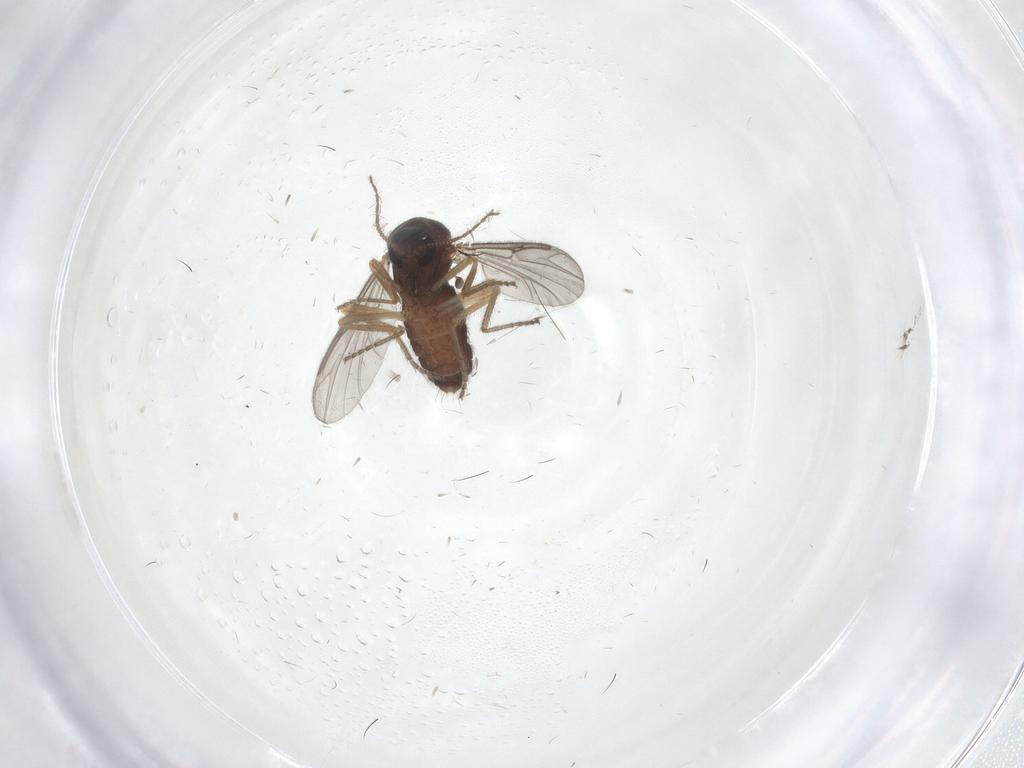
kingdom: Animalia
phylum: Arthropoda
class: Insecta
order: Diptera
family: Ceratopogonidae
